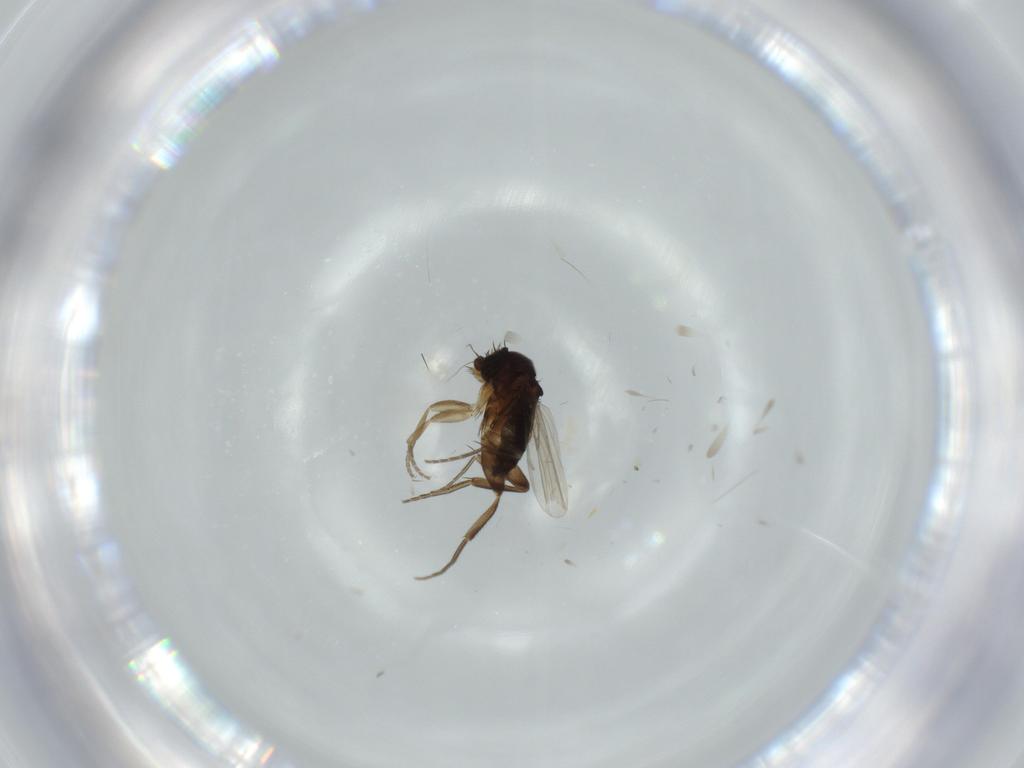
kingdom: Animalia
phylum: Arthropoda
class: Insecta
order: Diptera
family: Phoridae
